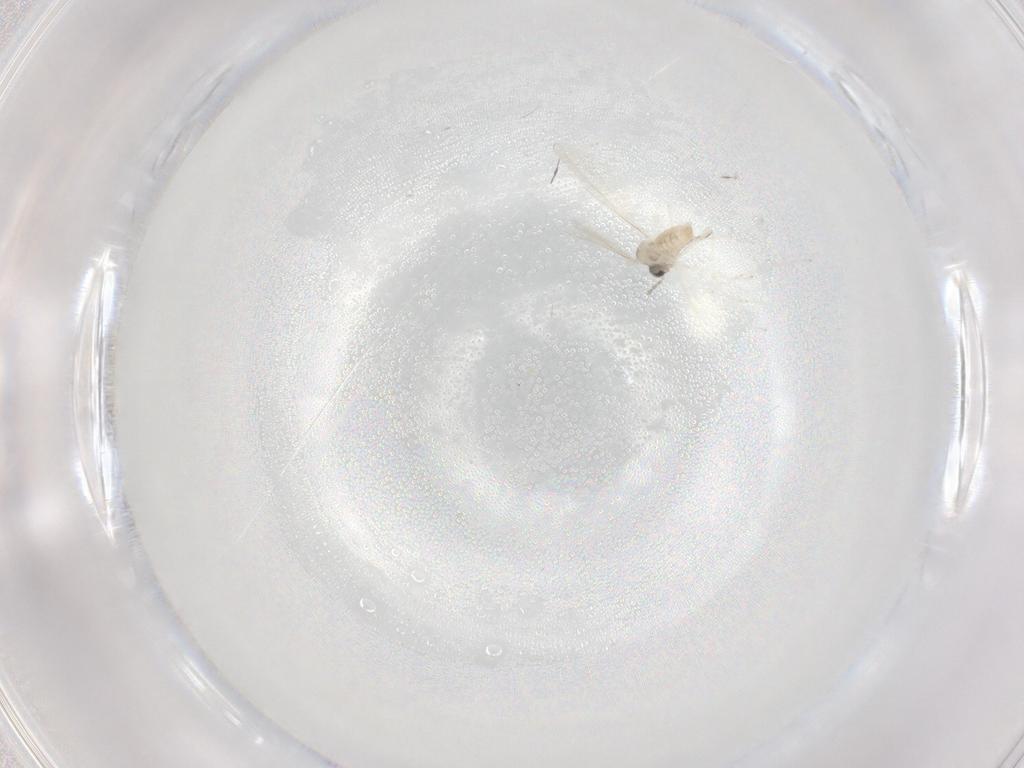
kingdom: Animalia
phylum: Arthropoda
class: Insecta
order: Diptera
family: Cecidomyiidae
